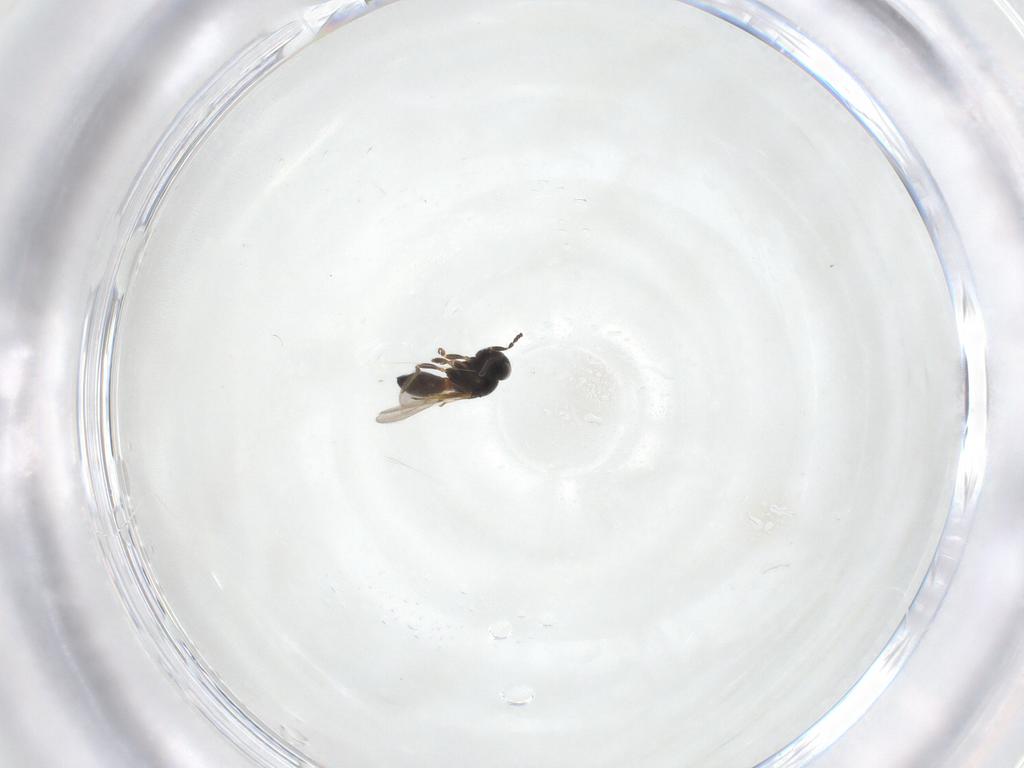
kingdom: Animalia
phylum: Arthropoda
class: Arachnida
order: Araneae
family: Pholcidae
